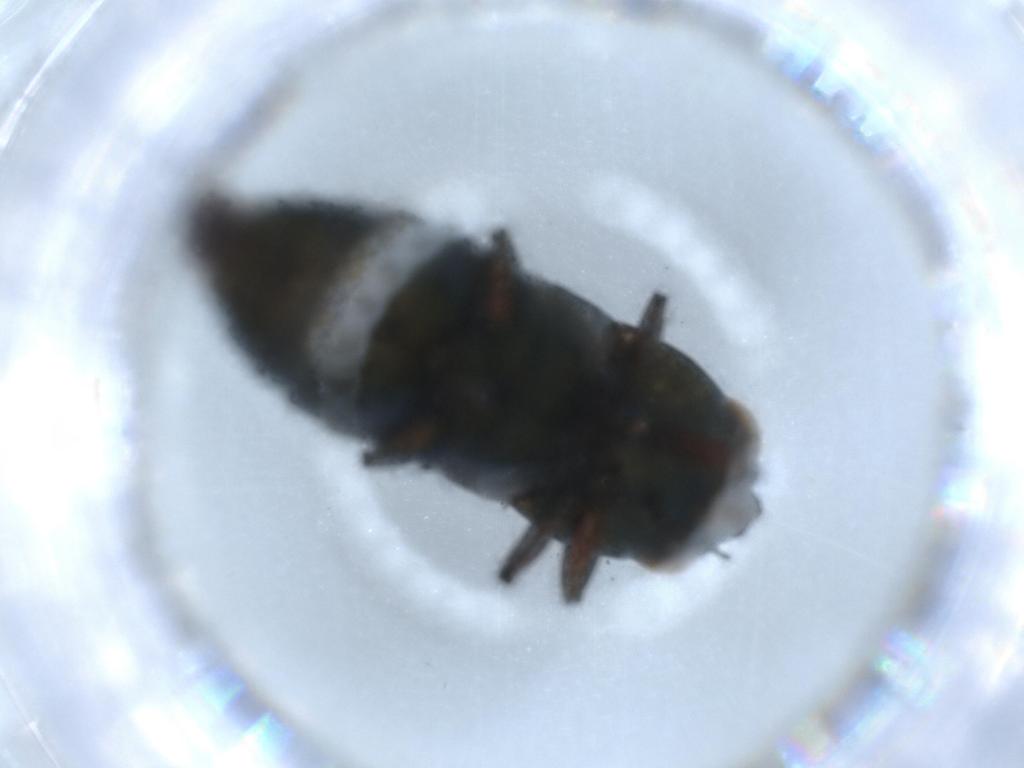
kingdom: Animalia
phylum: Arthropoda
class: Insecta
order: Coleoptera
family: Buprestidae
